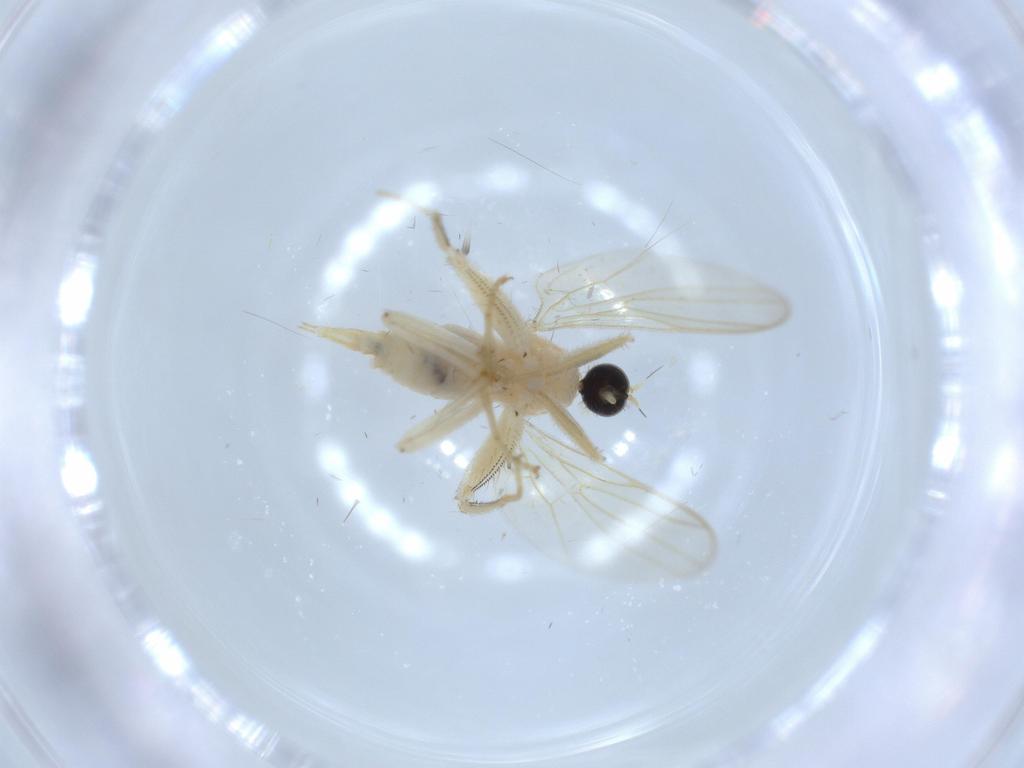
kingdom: Animalia
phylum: Arthropoda
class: Insecta
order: Diptera
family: Hybotidae
